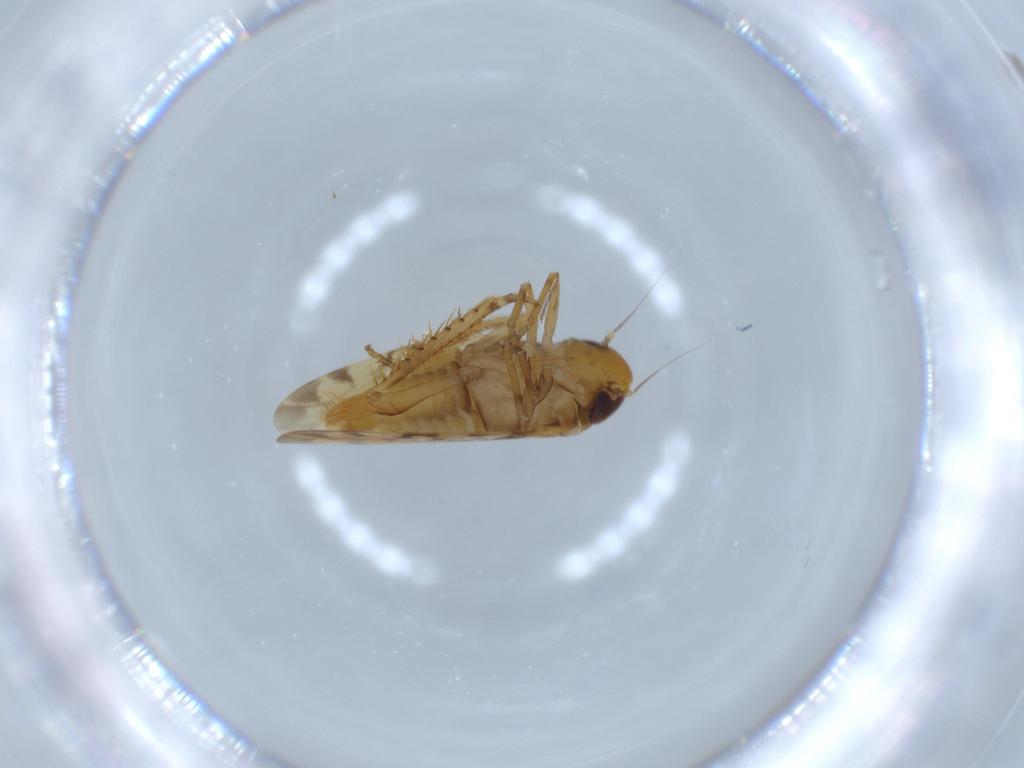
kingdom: Animalia
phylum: Arthropoda
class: Insecta
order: Hemiptera
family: Cicadellidae
